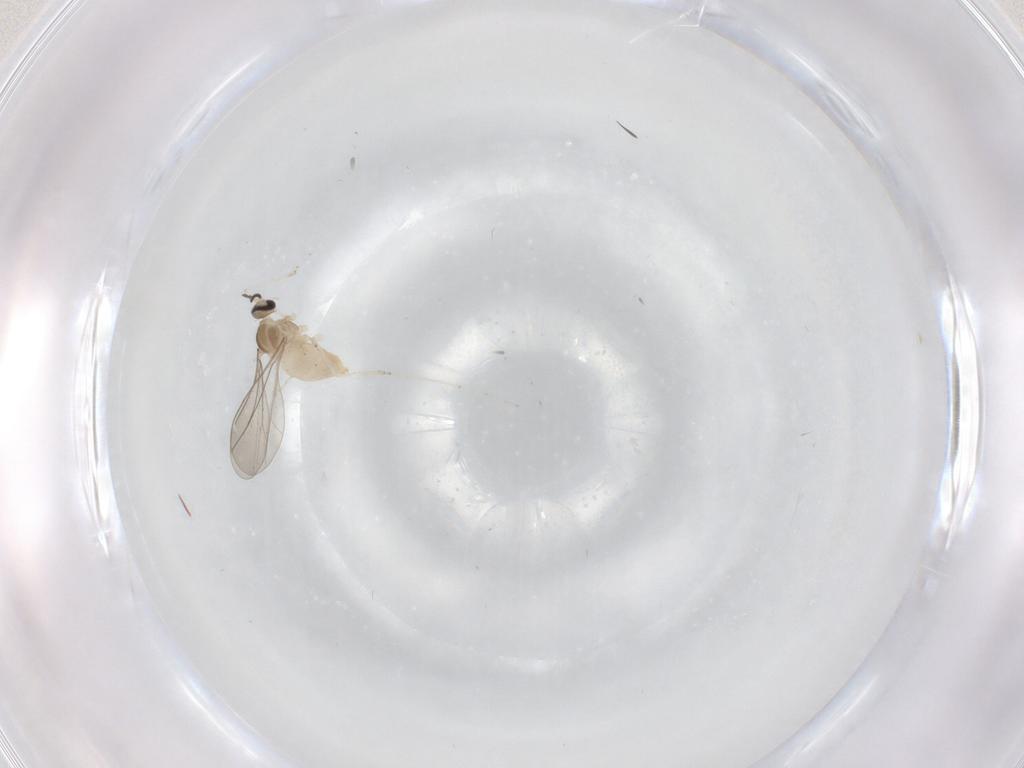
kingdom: Animalia
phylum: Arthropoda
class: Insecta
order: Diptera
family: Cecidomyiidae
